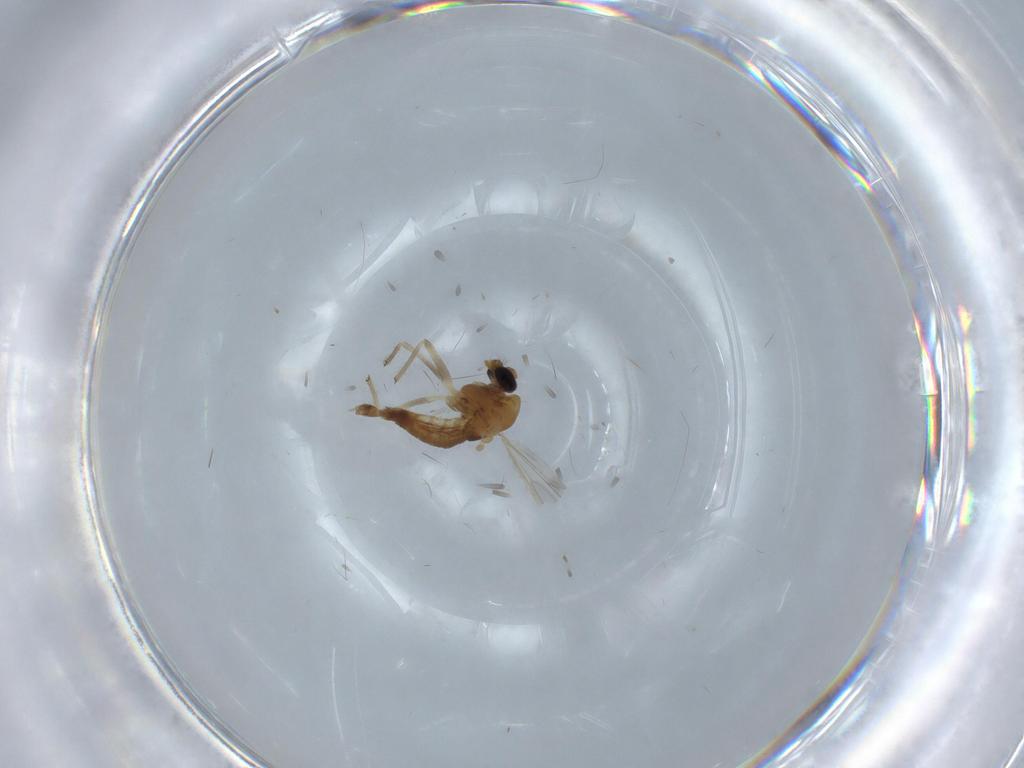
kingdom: Animalia
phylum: Arthropoda
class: Insecta
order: Diptera
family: Chironomidae
